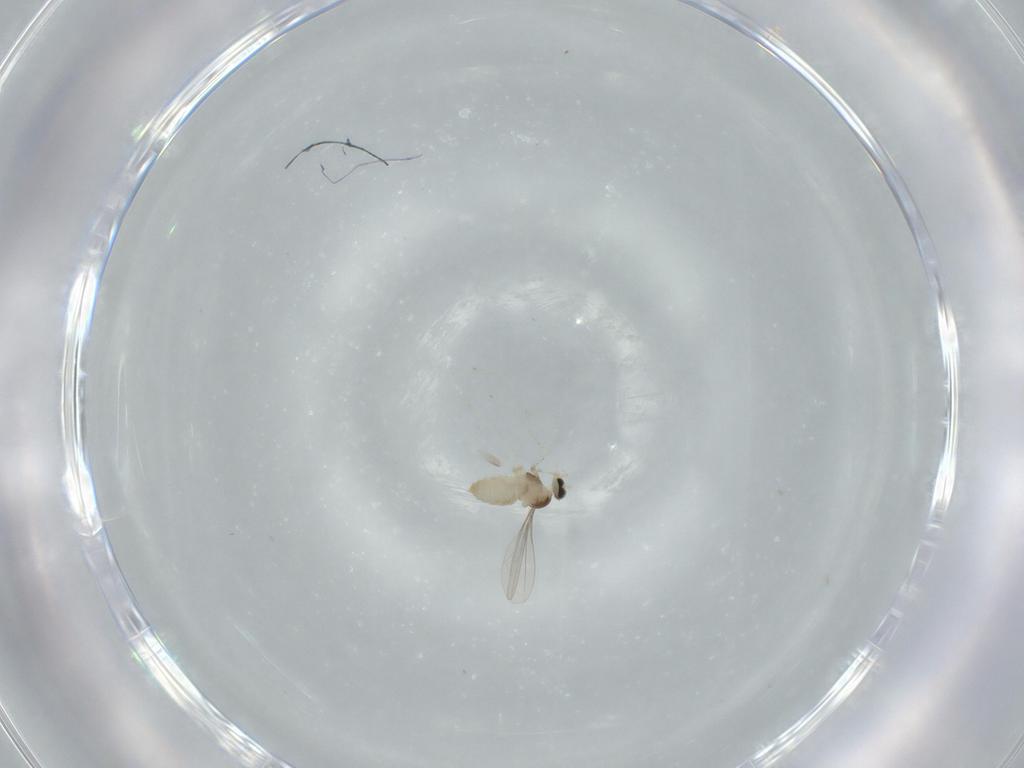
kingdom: Animalia
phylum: Arthropoda
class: Insecta
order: Diptera
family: Cecidomyiidae
